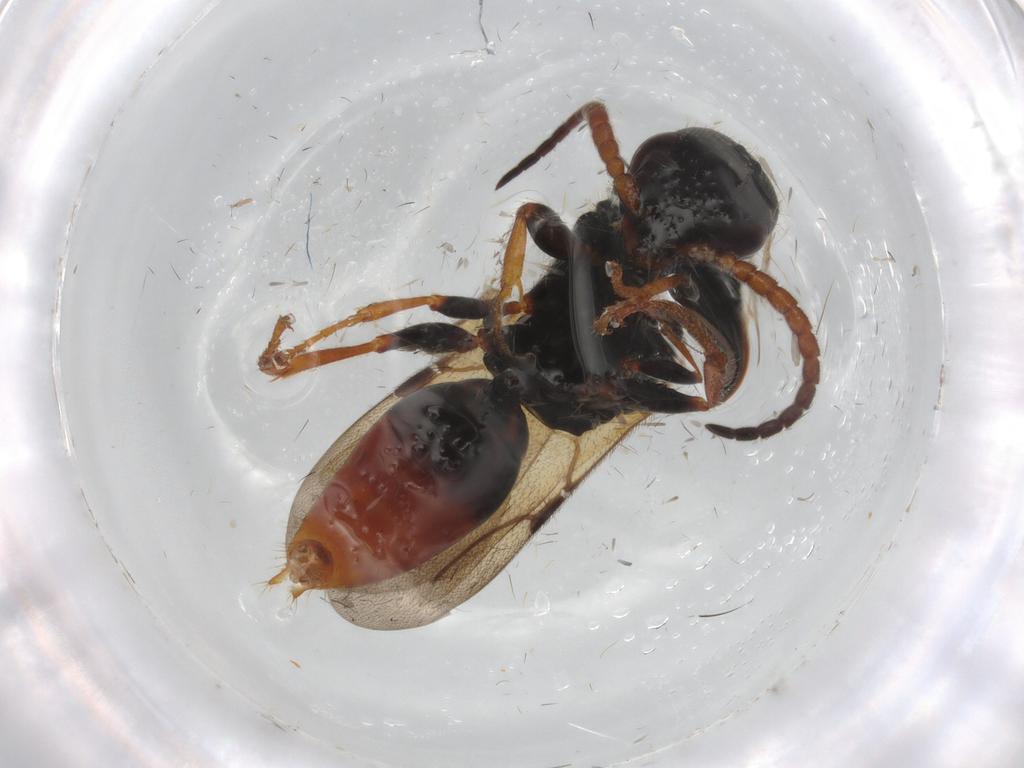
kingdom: Animalia
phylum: Arthropoda
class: Insecta
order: Hymenoptera
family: Bethylidae
